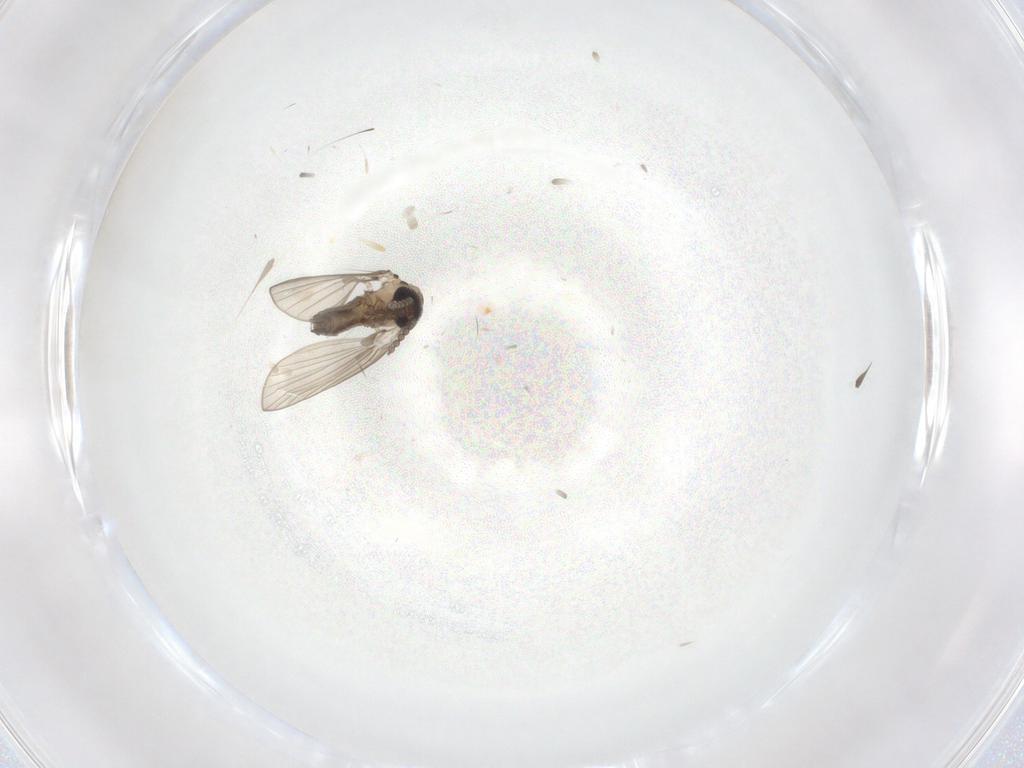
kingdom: Animalia
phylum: Arthropoda
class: Insecta
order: Diptera
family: Psychodidae
